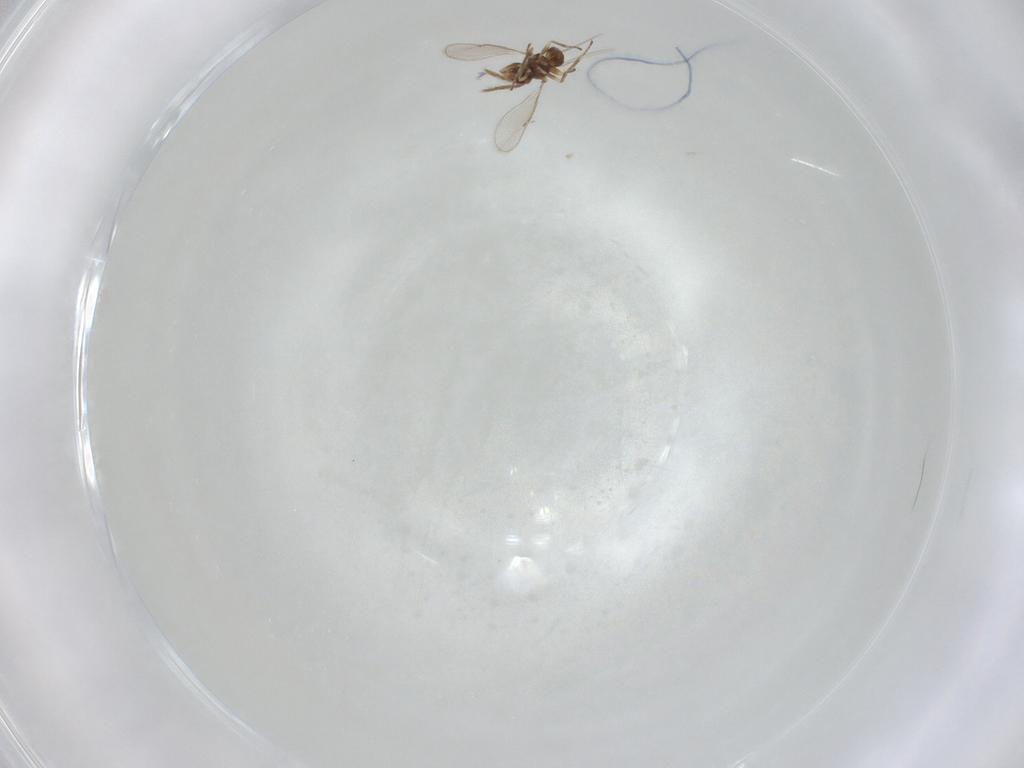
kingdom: Animalia
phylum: Arthropoda
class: Insecta
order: Hymenoptera
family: Eulophidae
